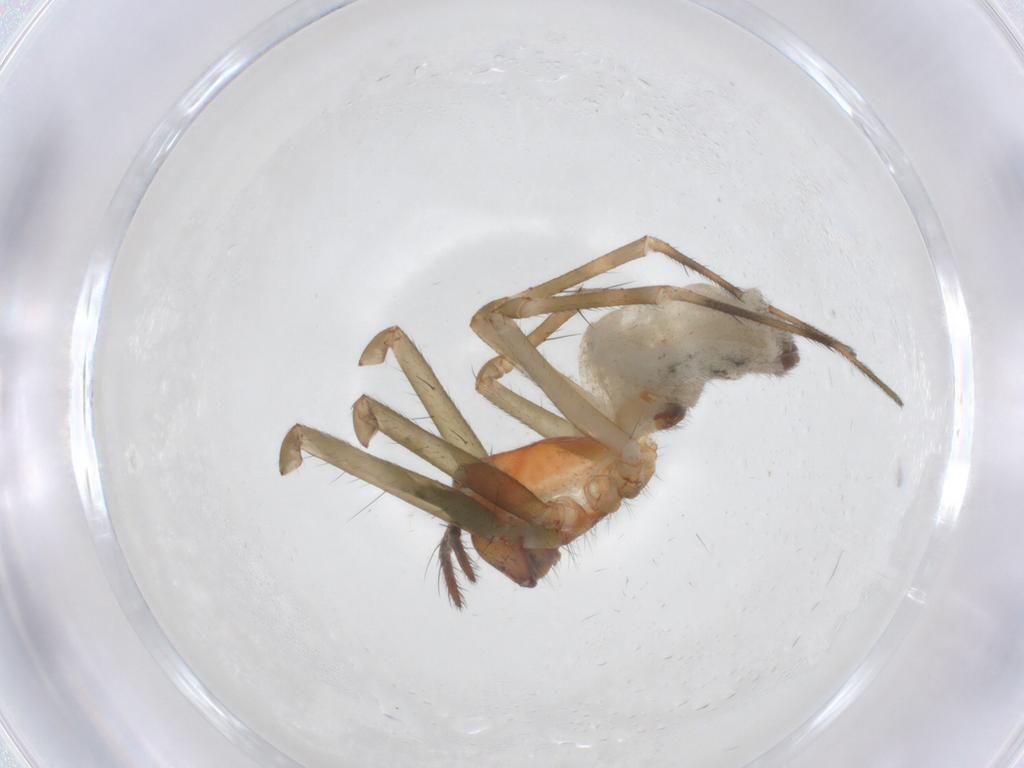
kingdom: Animalia
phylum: Arthropoda
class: Arachnida
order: Araneae
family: Linyphiidae
